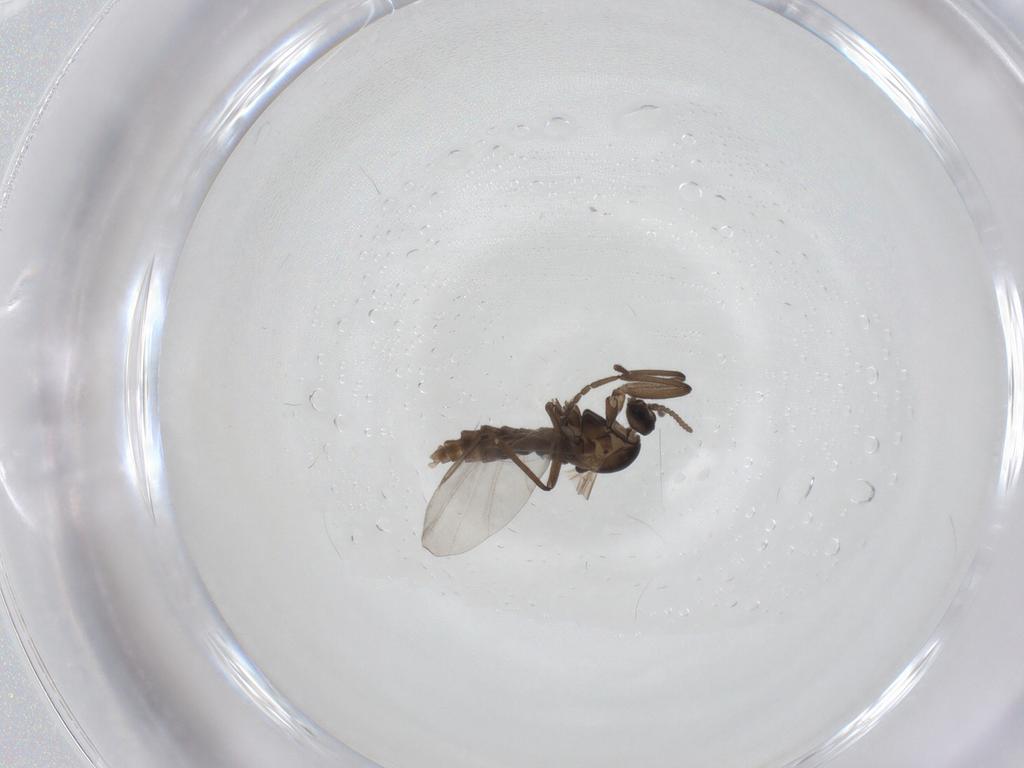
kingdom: Animalia
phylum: Arthropoda
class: Insecta
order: Diptera
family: Cecidomyiidae
